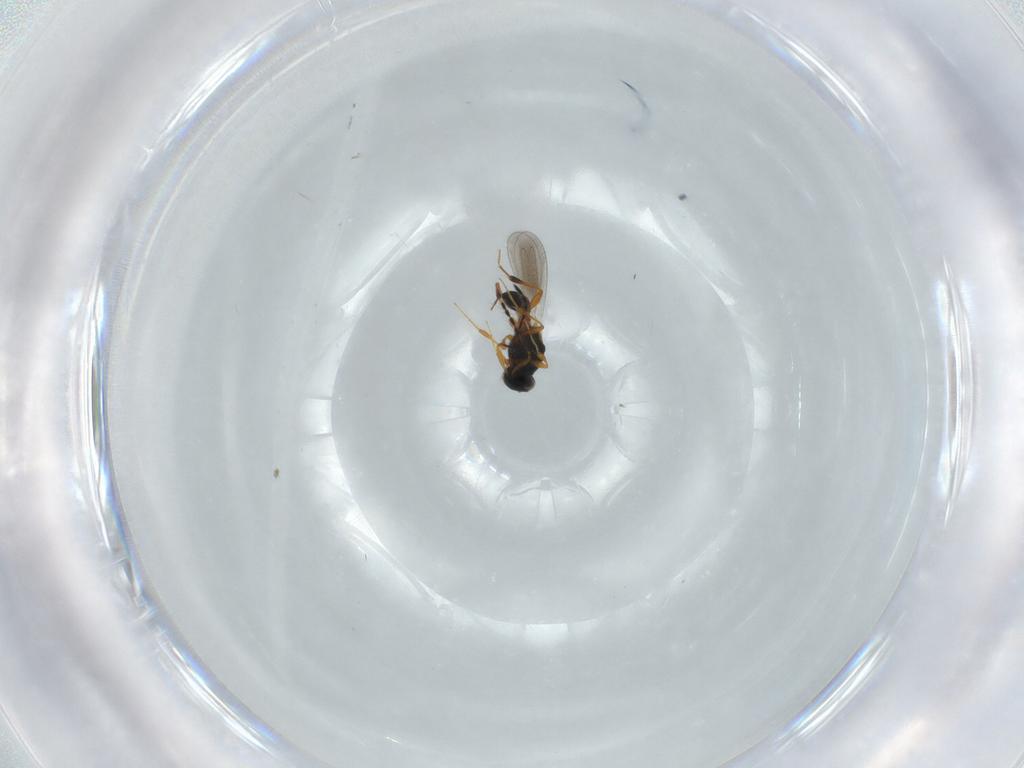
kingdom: Animalia
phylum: Arthropoda
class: Insecta
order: Hymenoptera
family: Platygastridae
